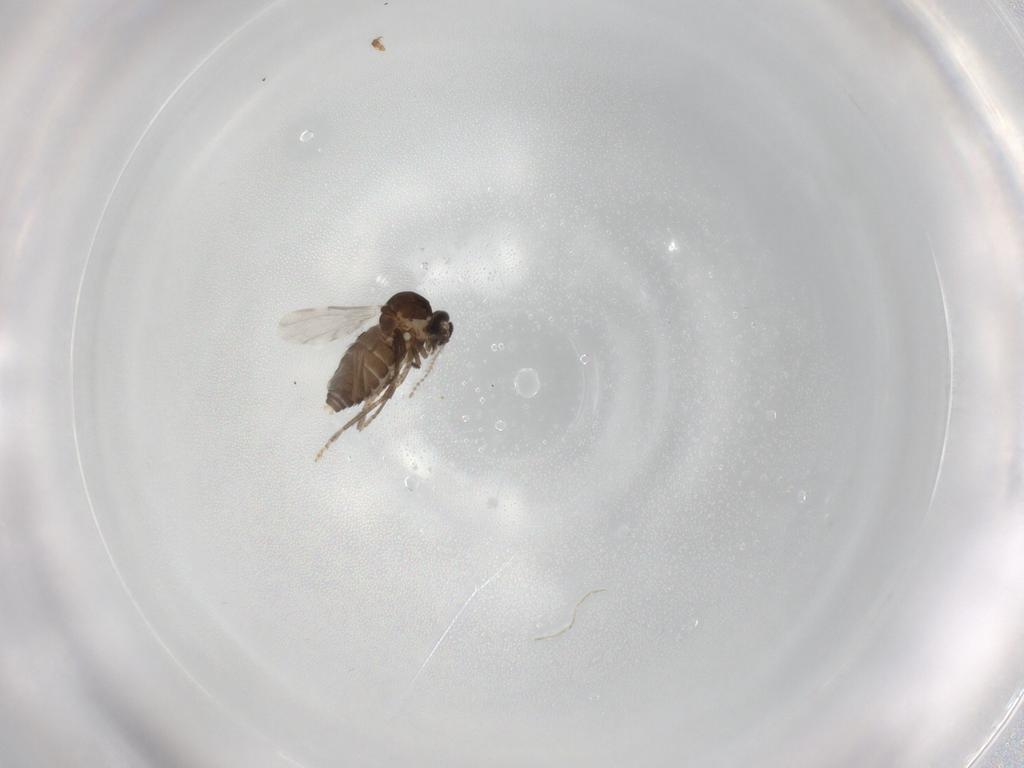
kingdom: Animalia
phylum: Arthropoda
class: Insecta
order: Diptera
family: Ceratopogonidae
